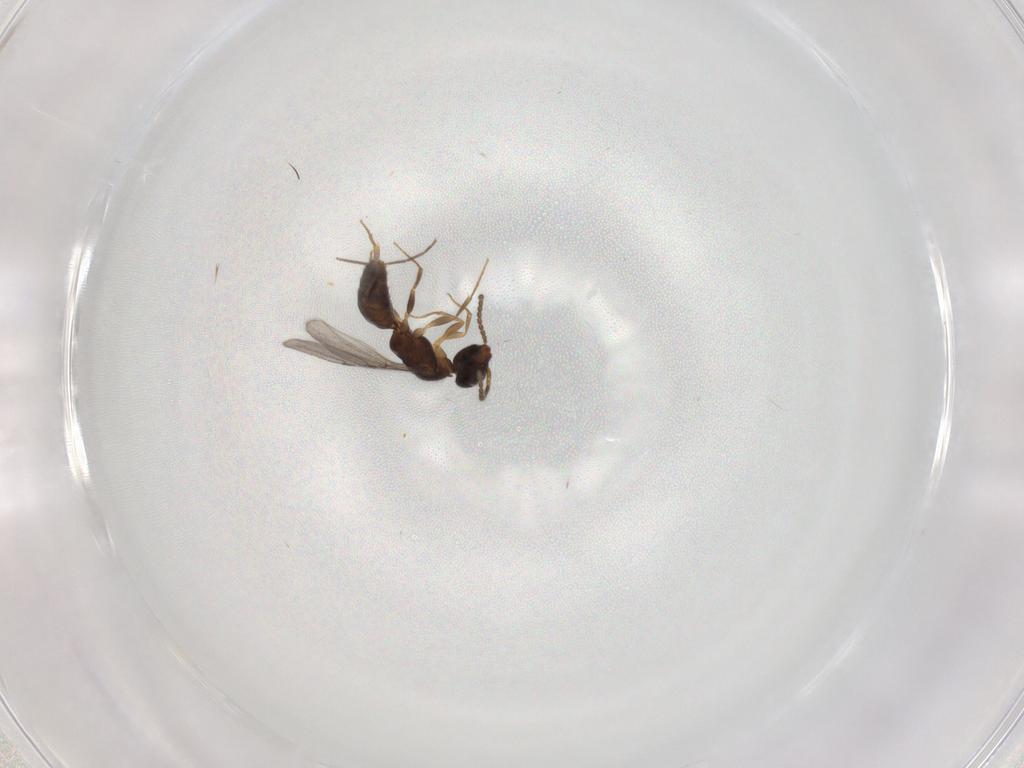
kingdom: Animalia
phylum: Arthropoda
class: Insecta
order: Hymenoptera
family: Bethylidae
